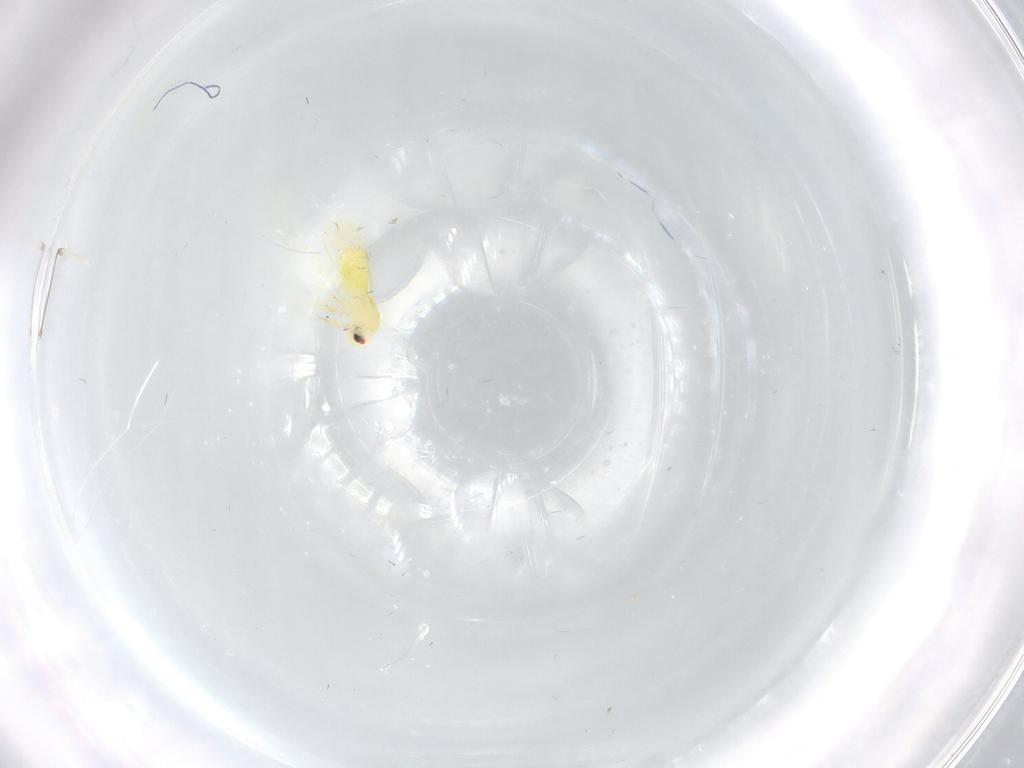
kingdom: Animalia
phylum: Arthropoda
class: Insecta
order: Hemiptera
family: Aleyrodidae
